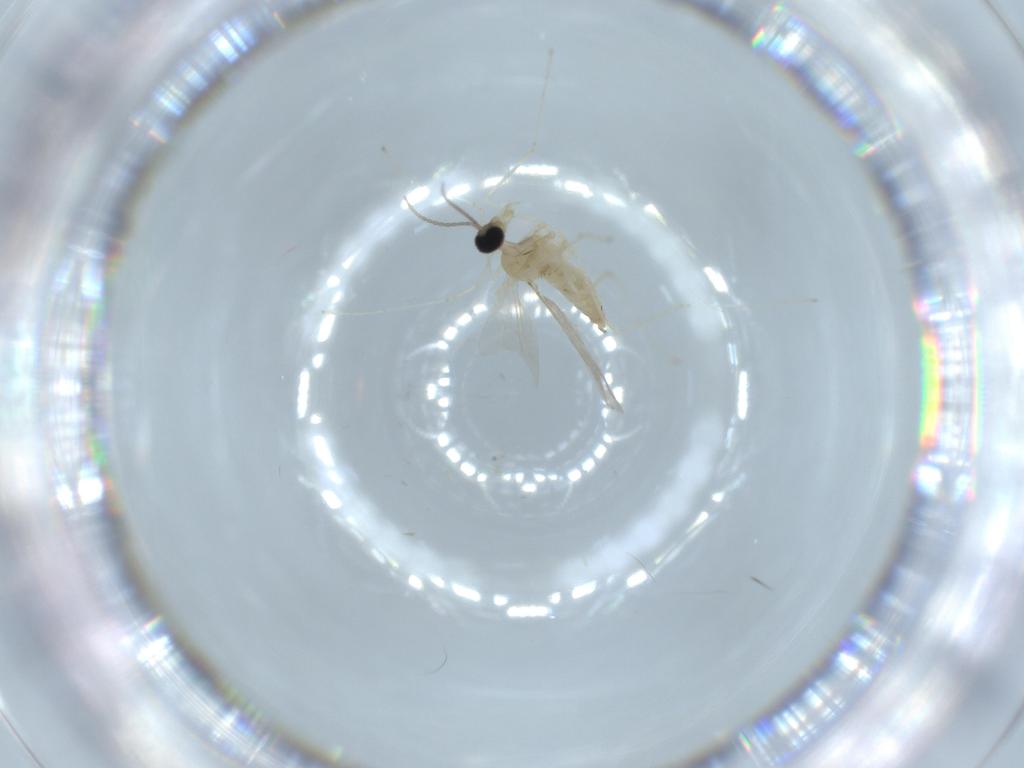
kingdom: Animalia
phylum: Arthropoda
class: Insecta
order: Diptera
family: Cecidomyiidae
